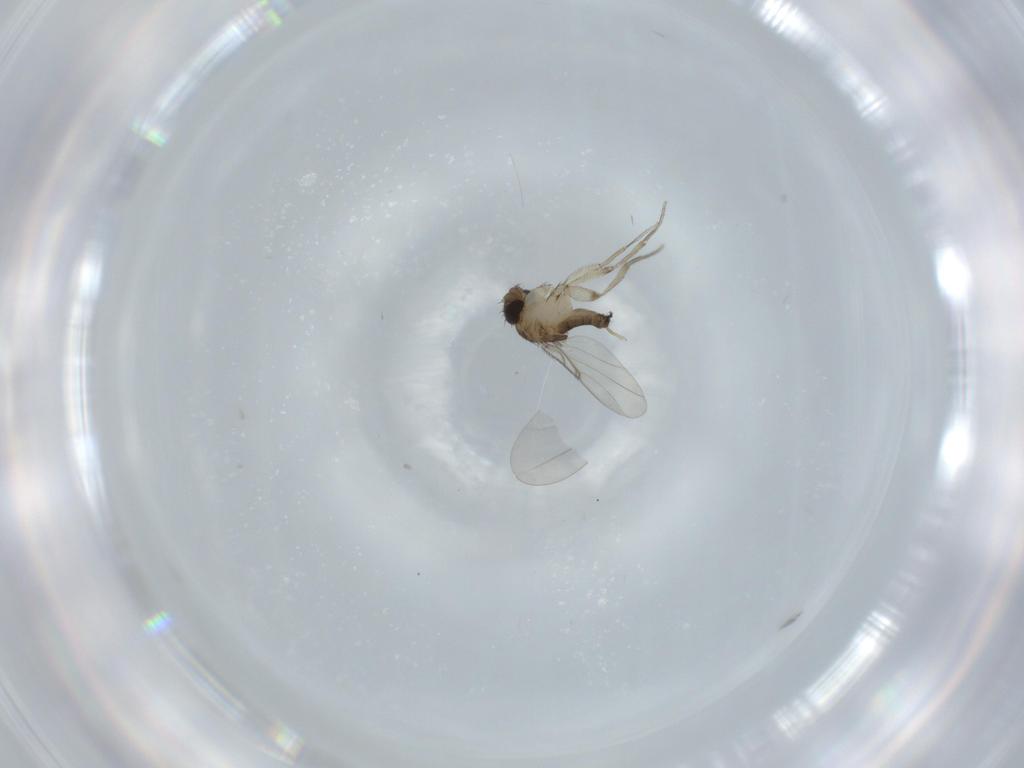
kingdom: Animalia
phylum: Arthropoda
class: Insecta
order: Diptera
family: Phoridae
